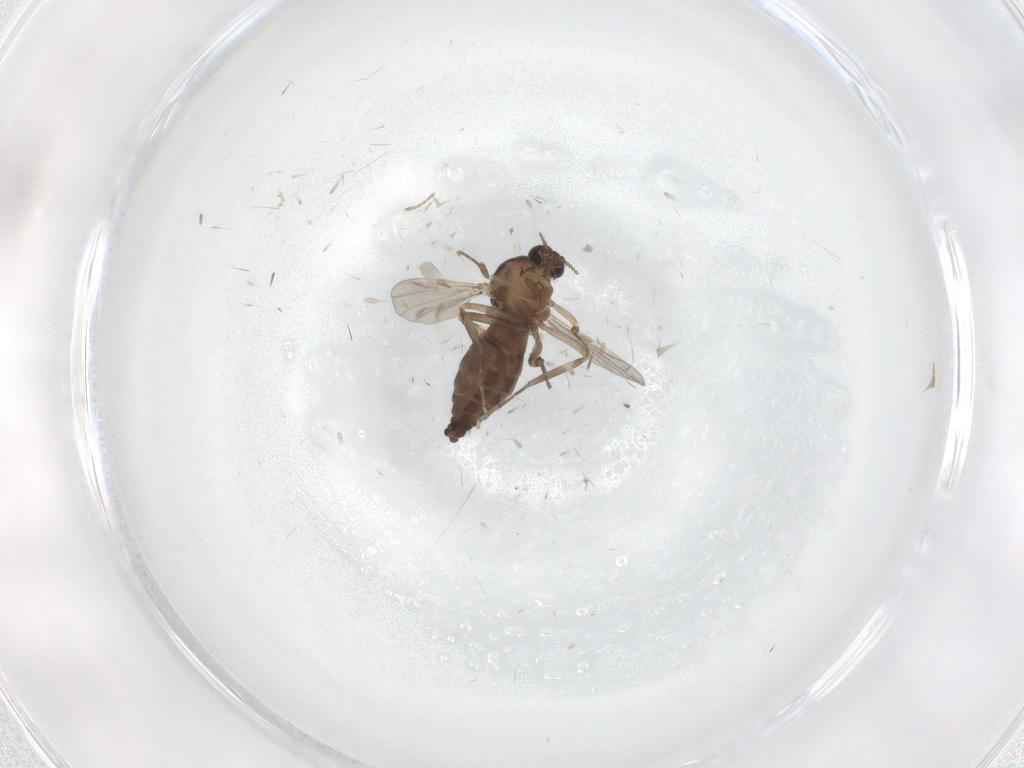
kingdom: Animalia
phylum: Arthropoda
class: Insecta
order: Diptera
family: Ceratopogonidae
